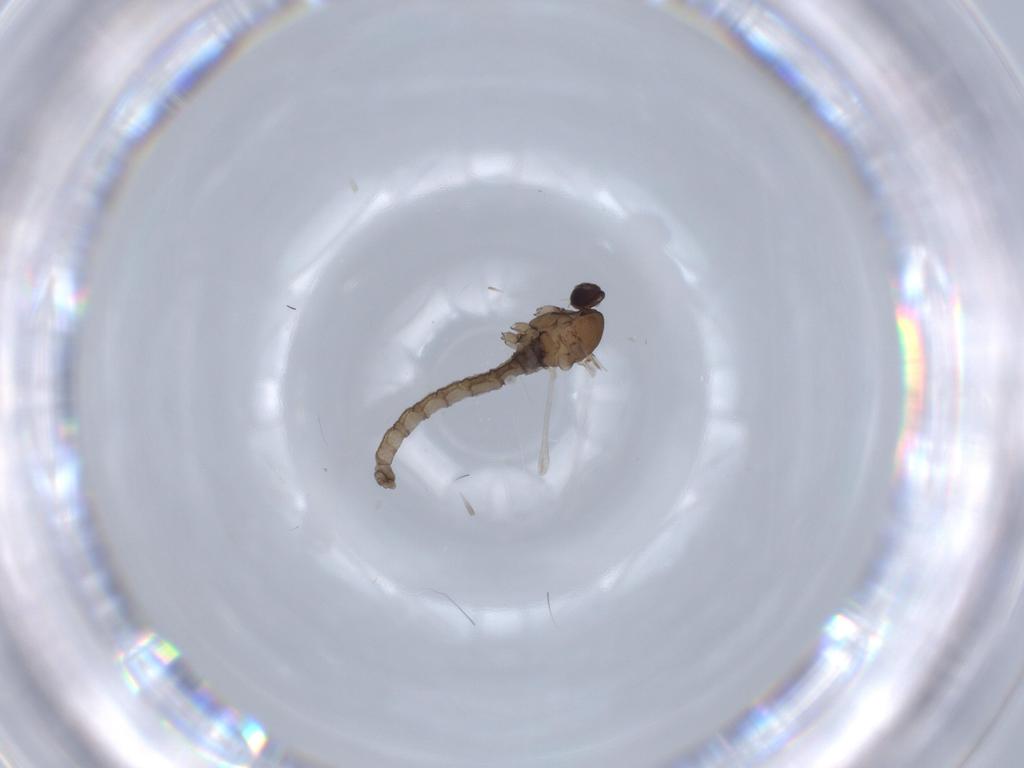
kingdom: Animalia
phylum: Arthropoda
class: Insecta
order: Diptera
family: Cecidomyiidae
